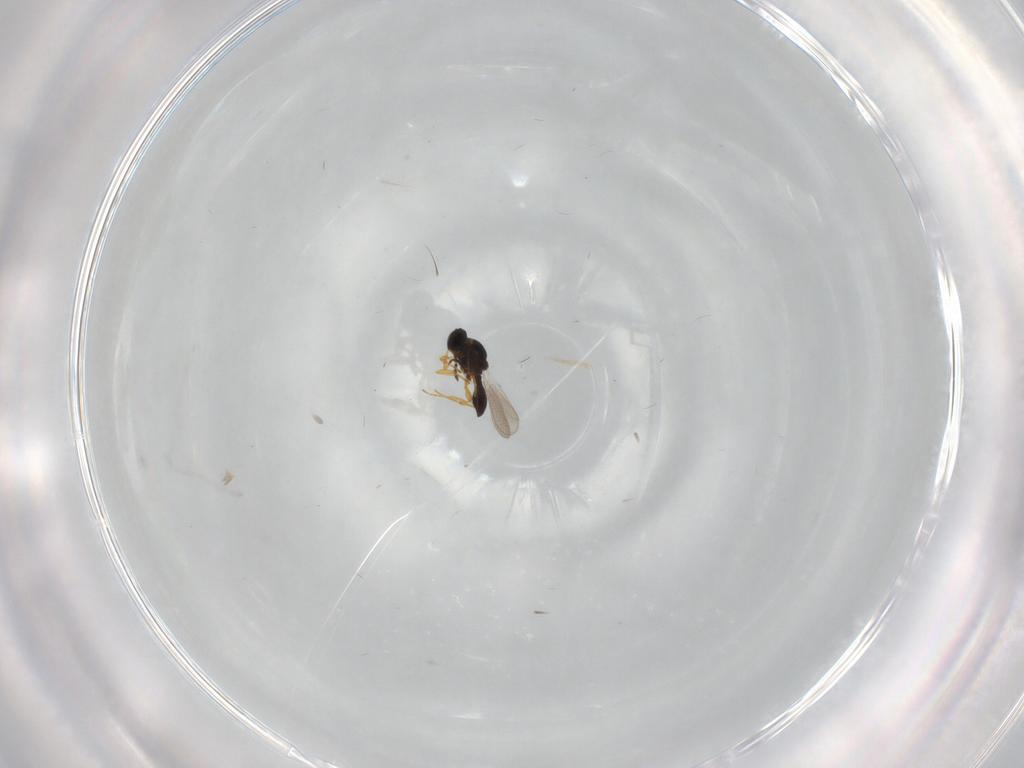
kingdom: Animalia
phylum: Arthropoda
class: Insecta
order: Hymenoptera
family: Platygastridae
